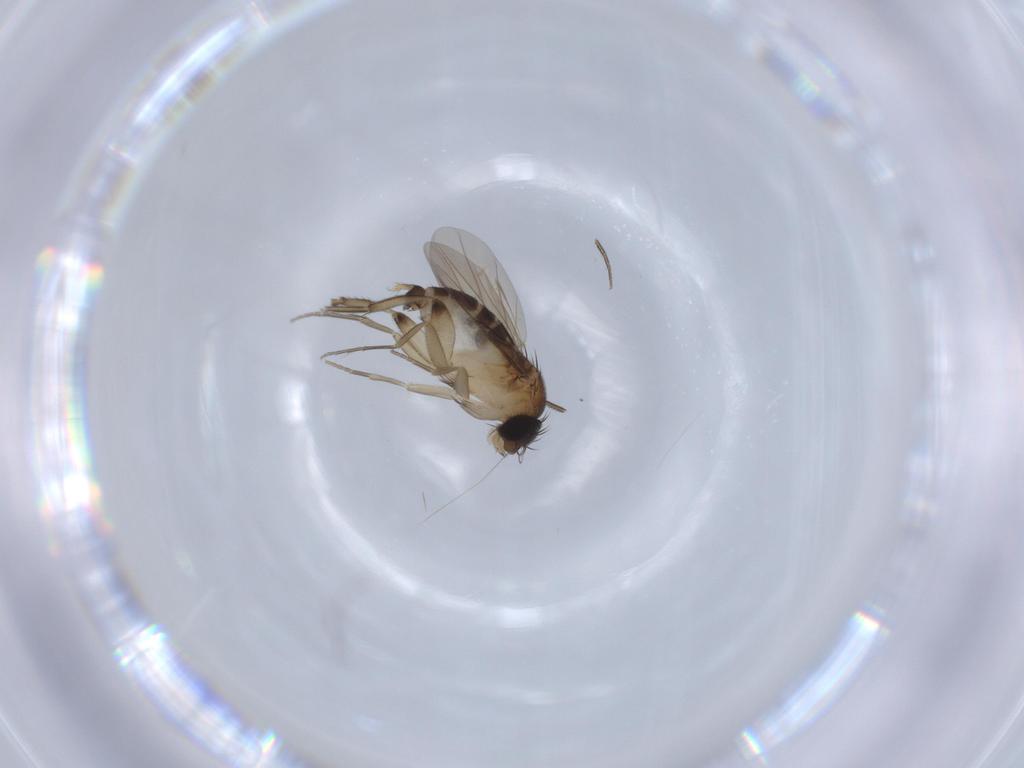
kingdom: Animalia
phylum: Arthropoda
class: Insecta
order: Diptera
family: Phoridae
